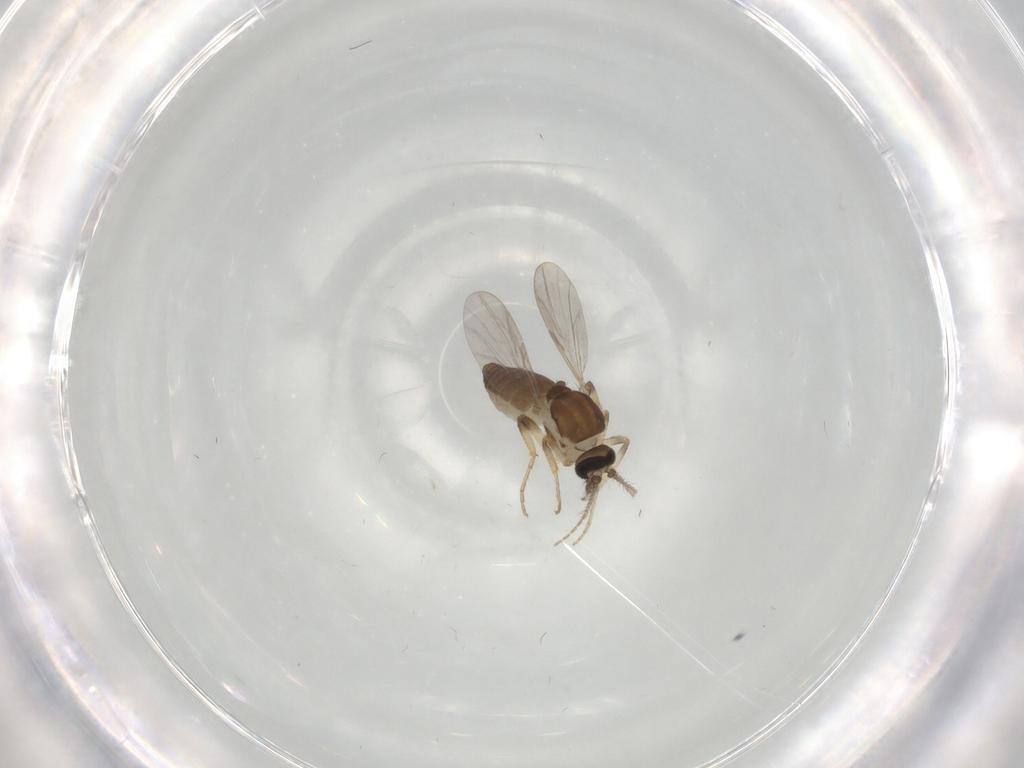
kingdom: Animalia
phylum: Arthropoda
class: Insecta
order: Diptera
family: Ceratopogonidae
